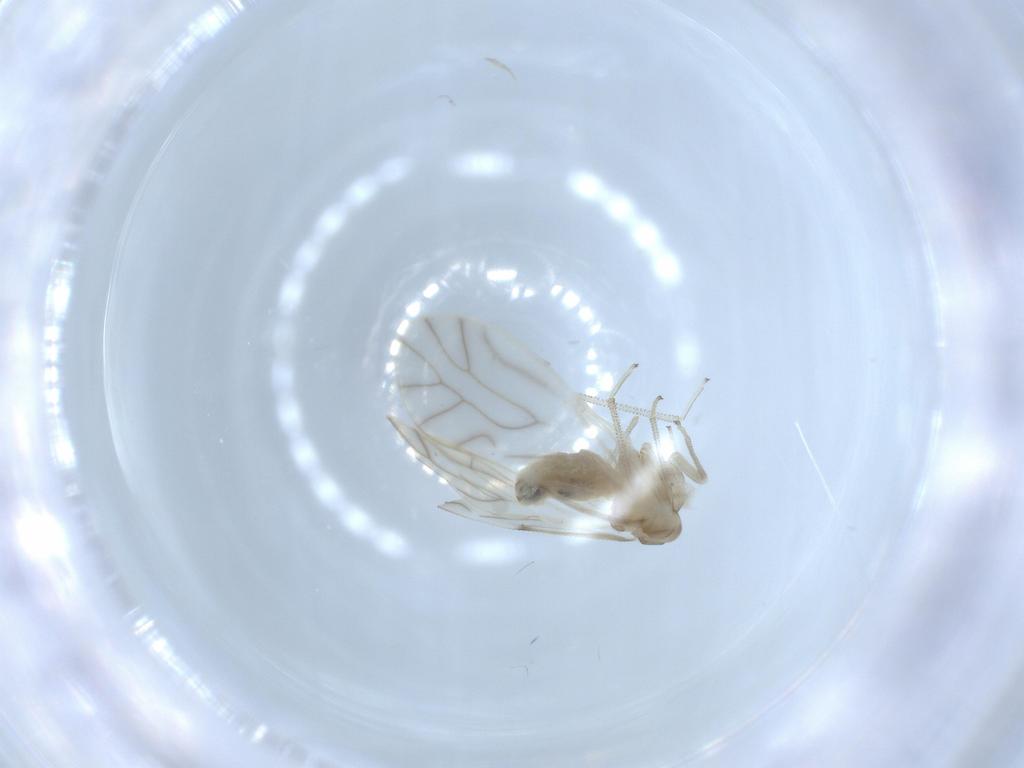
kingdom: Animalia
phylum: Arthropoda
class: Insecta
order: Psocodea
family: Caeciliusidae
